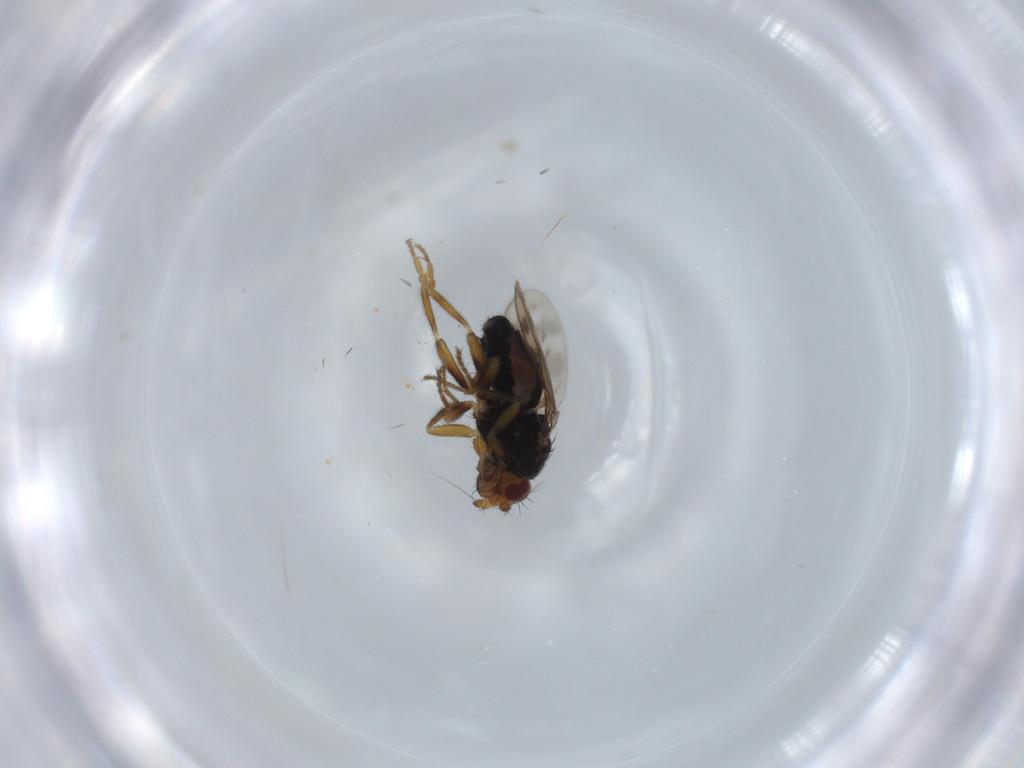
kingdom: Animalia
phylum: Arthropoda
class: Insecta
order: Diptera
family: Sphaeroceridae
